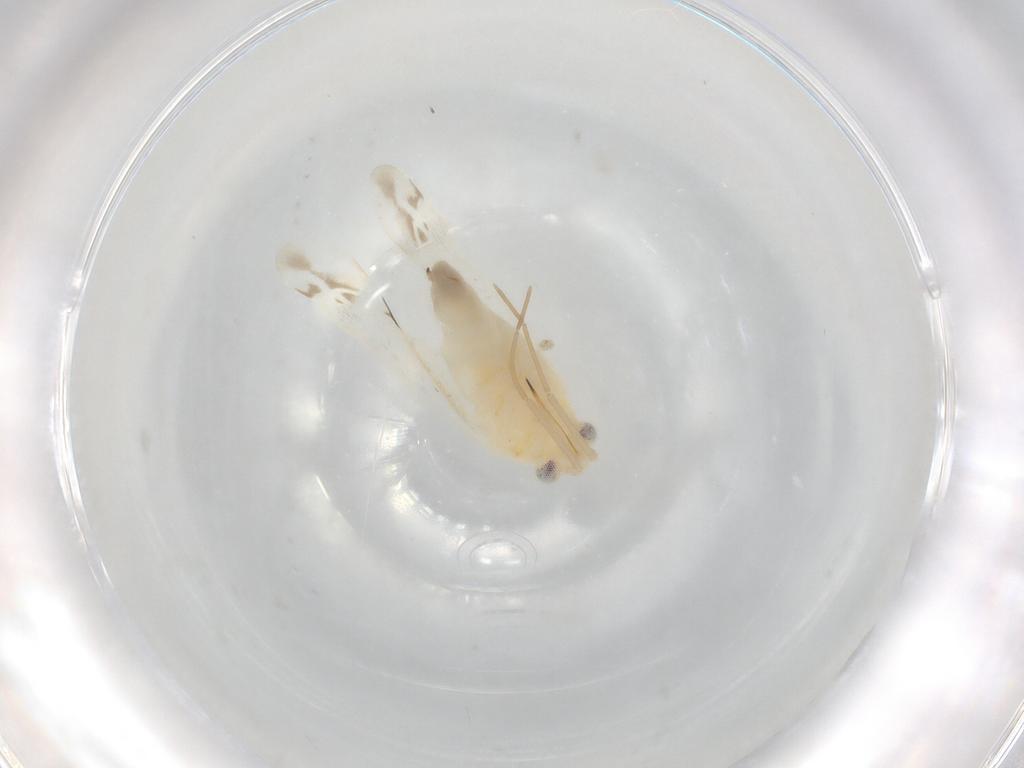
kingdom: Animalia
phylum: Arthropoda
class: Insecta
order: Hemiptera
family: Miridae
